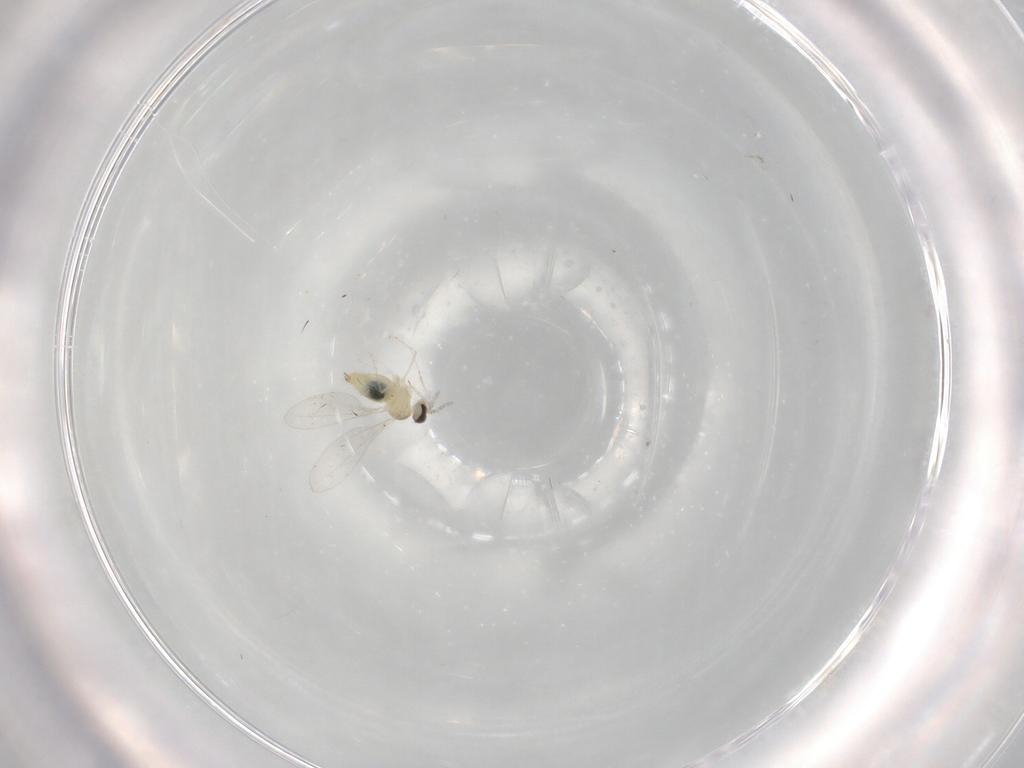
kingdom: Animalia
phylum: Arthropoda
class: Insecta
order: Diptera
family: Cecidomyiidae
